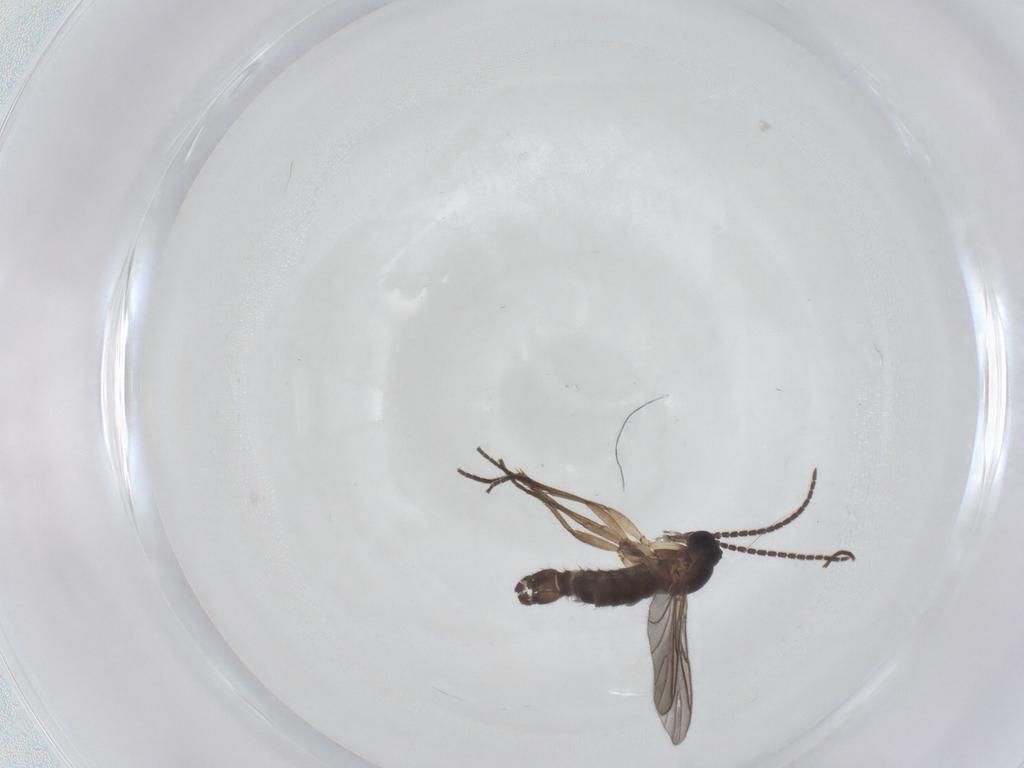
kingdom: Animalia
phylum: Arthropoda
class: Insecta
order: Diptera
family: Sciaridae
